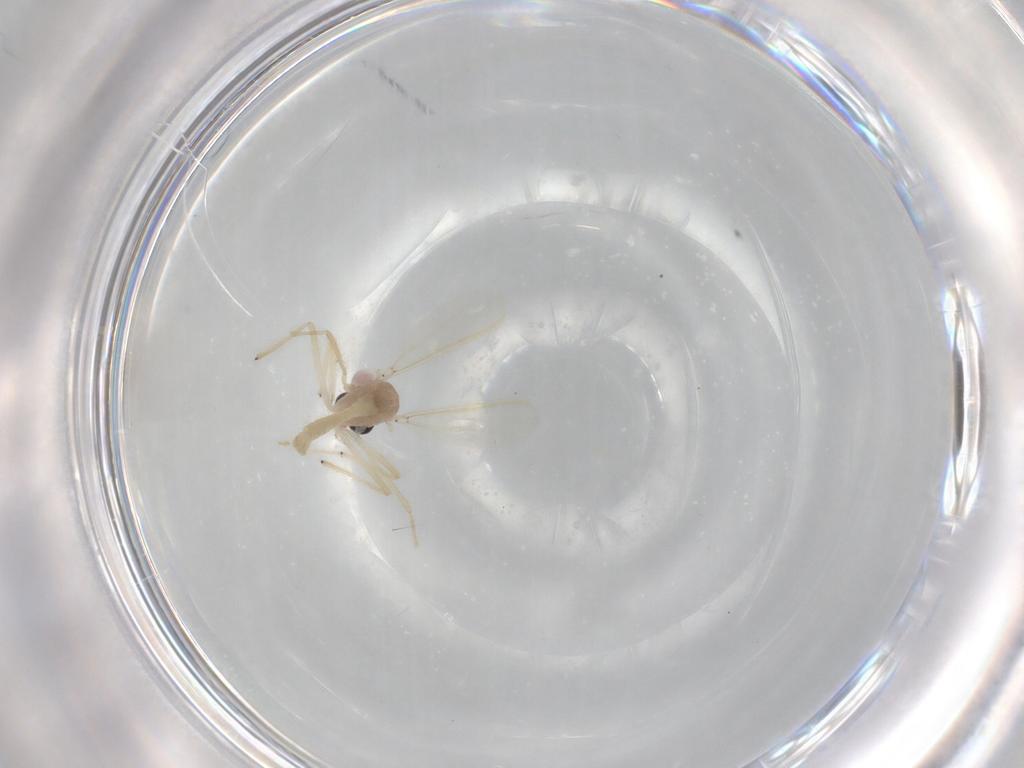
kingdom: Animalia
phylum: Arthropoda
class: Insecta
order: Diptera
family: Chironomidae
